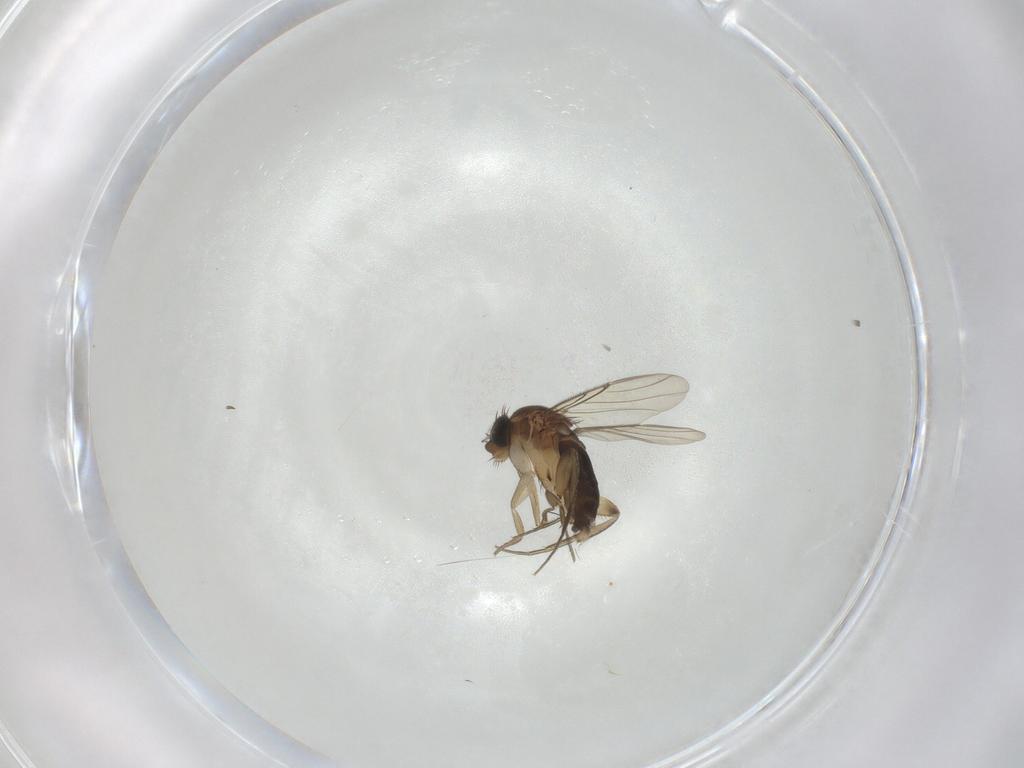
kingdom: Animalia
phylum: Arthropoda
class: Insecta
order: Diptera
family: Phoridae
